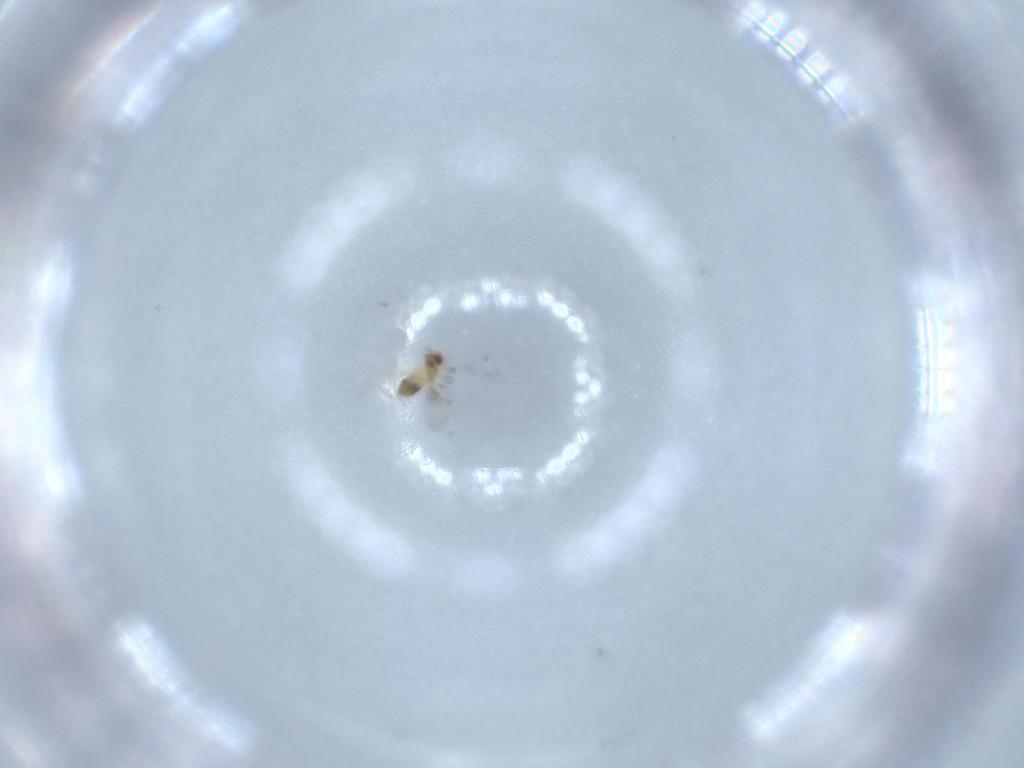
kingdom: Animalia
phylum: Arthropoda
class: Insecta
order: Hymenoptera
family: Trichogrammatidae
